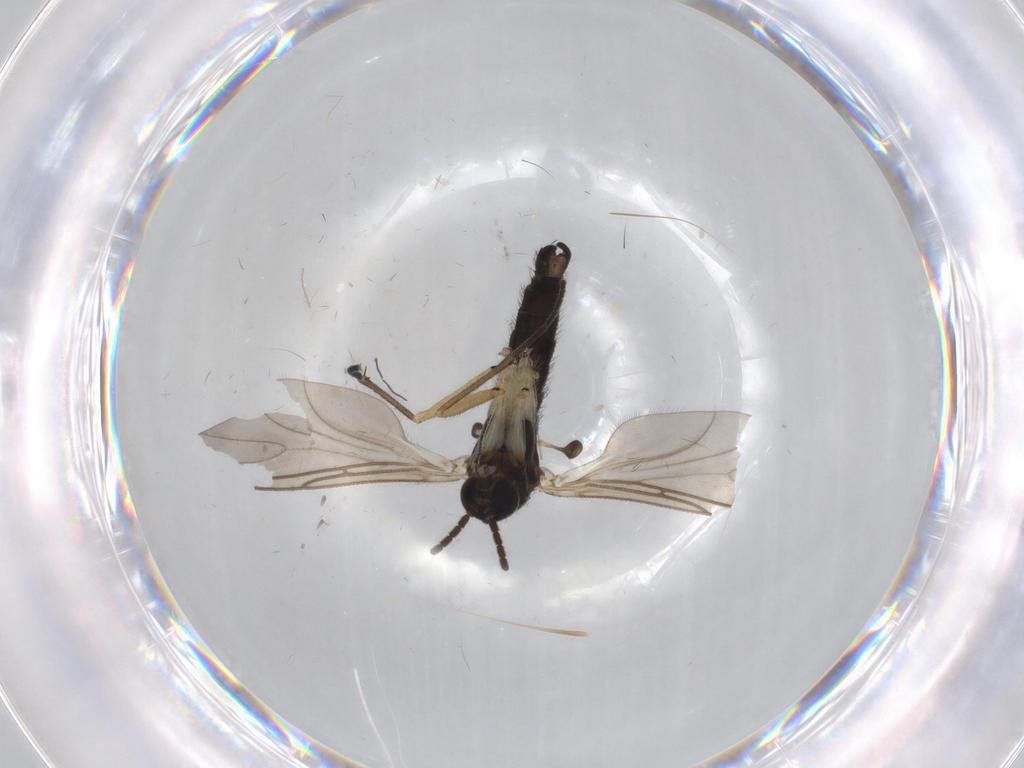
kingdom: Animalia
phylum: Arthropoda
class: Insecta
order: Diptera
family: Sciaridae
